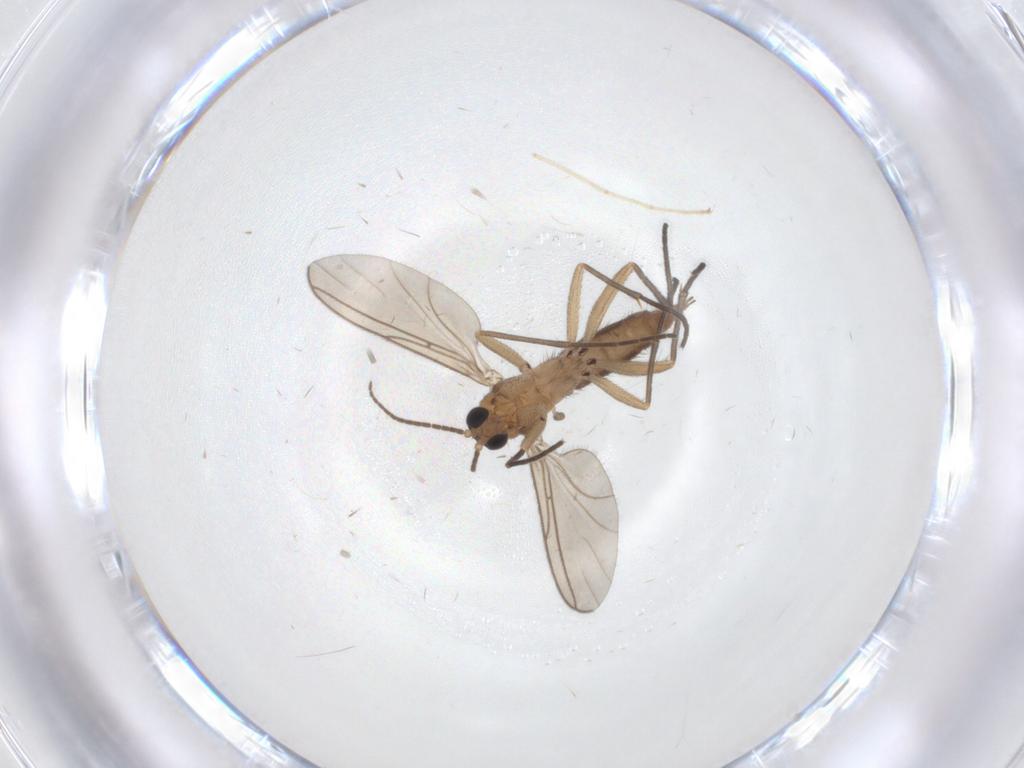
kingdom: Animalia
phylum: Arthropoda
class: Insecta
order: Diptera
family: Sciaridae
